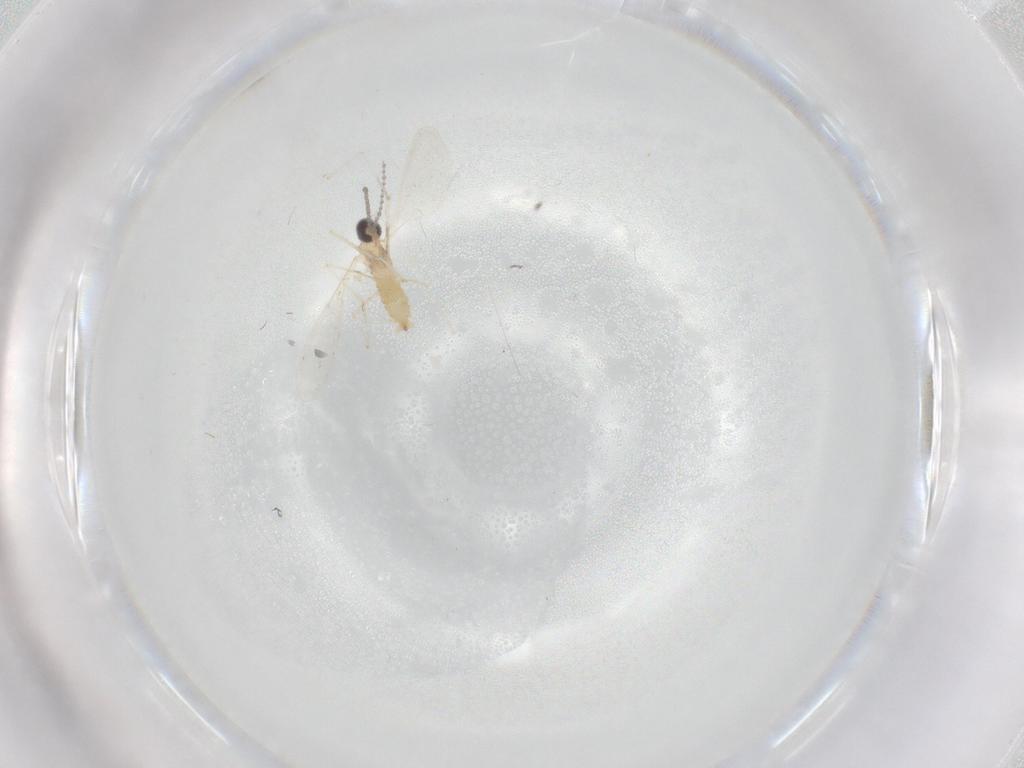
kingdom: Animalia
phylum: Arthropoda
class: Insecta
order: Diptera
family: Cecidomyiidae
